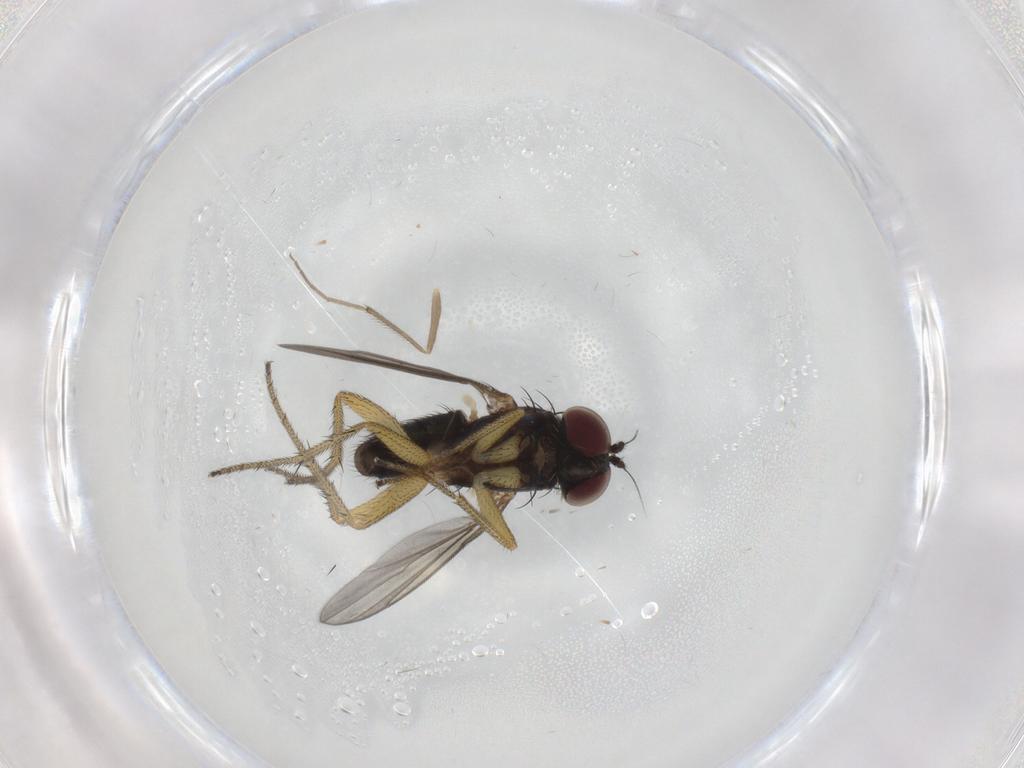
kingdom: Animalia
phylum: Arthropoda
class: Insecta
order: Diptera
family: Dolichopodidae
